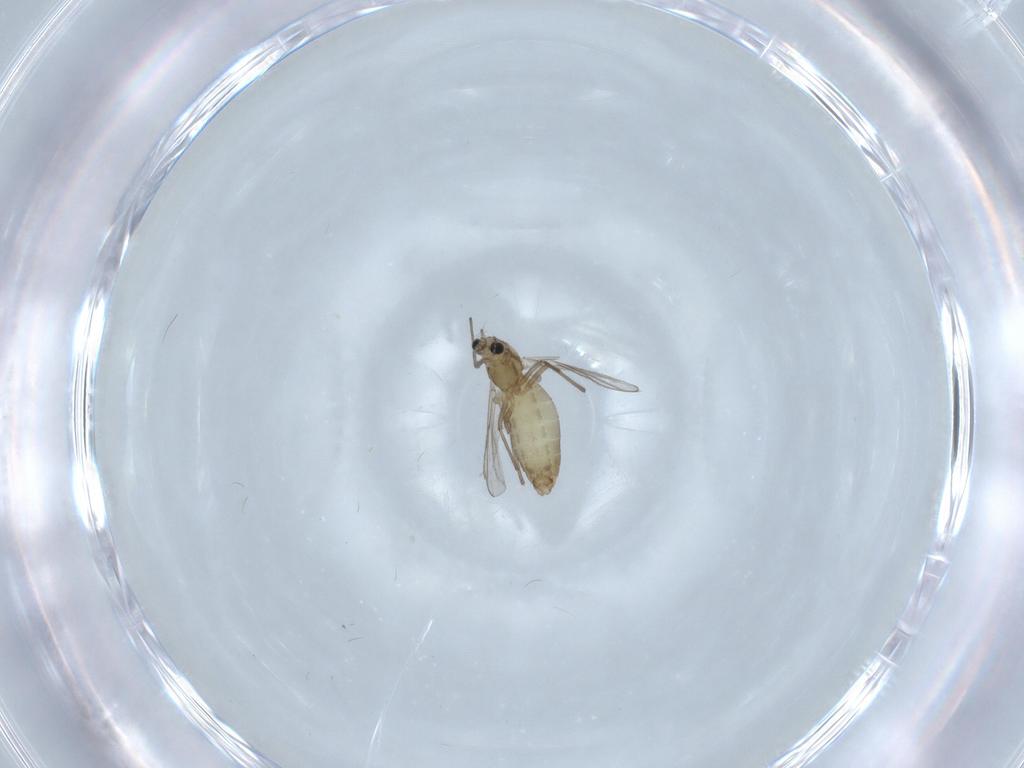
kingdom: Animalia
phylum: Arthropoda
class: Insecta
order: Diptera
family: Chironomidae
